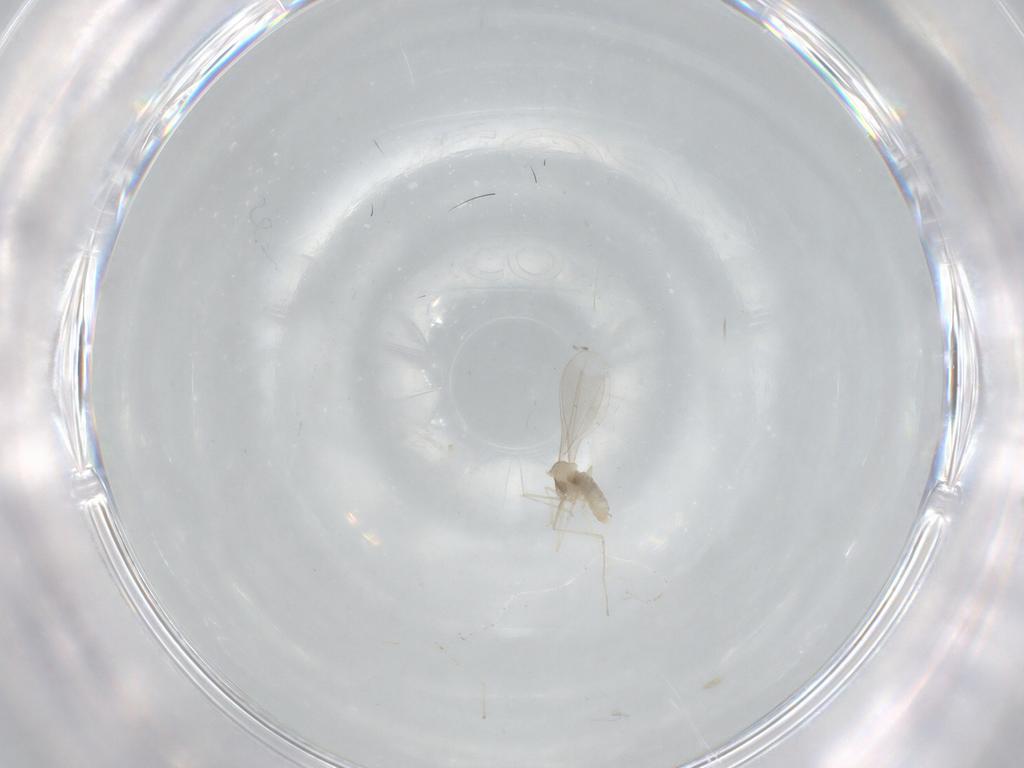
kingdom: Animalia
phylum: Arthropoda
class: Insecta
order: Diptera
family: Cecidomyiidae
